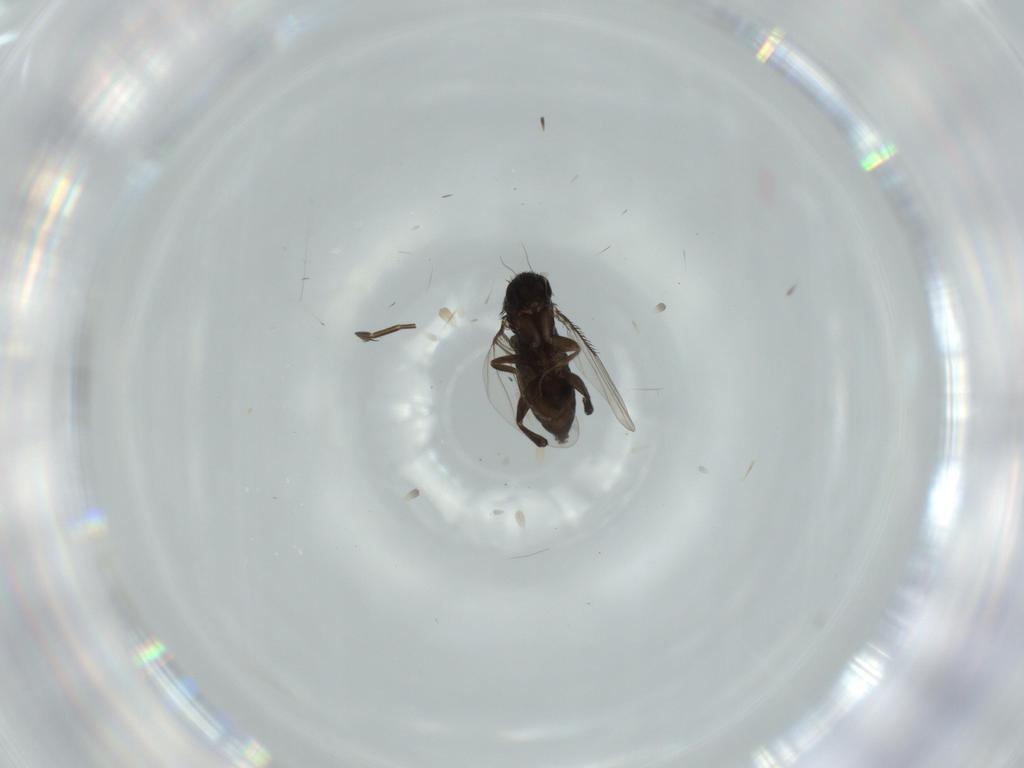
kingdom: Animalia
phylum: Arthropoda
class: Insecta
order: Diptera
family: Phoridae
